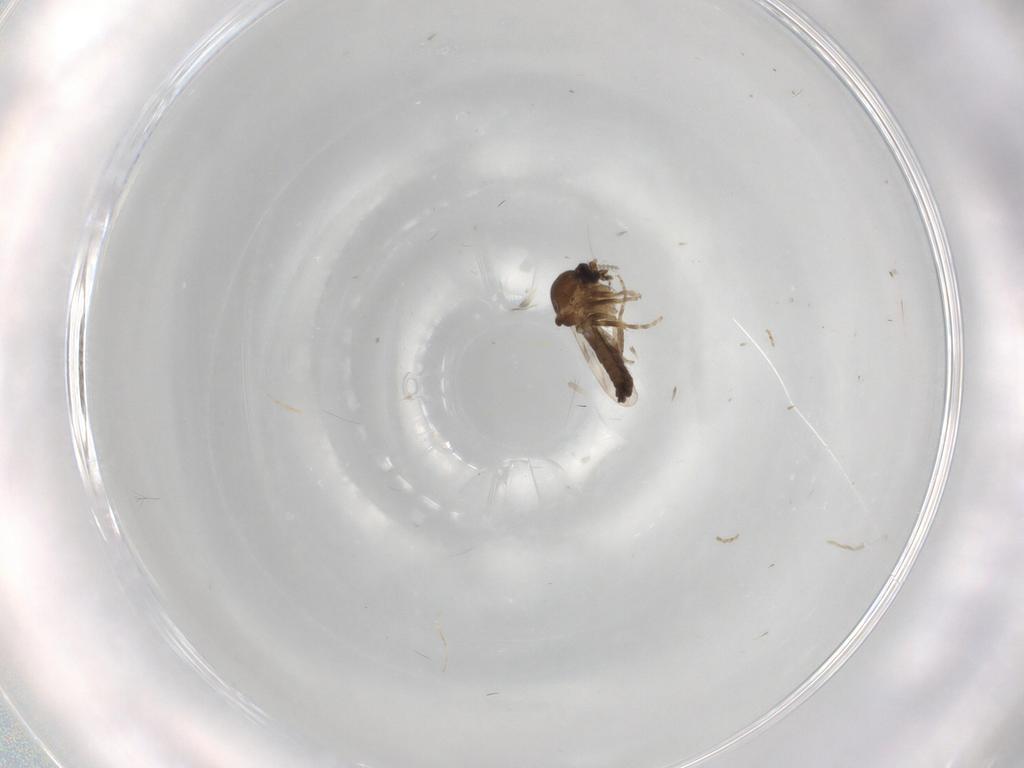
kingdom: Animalia
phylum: Arthropoda
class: Insecta
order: Diptera
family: Ceratopogonidae
